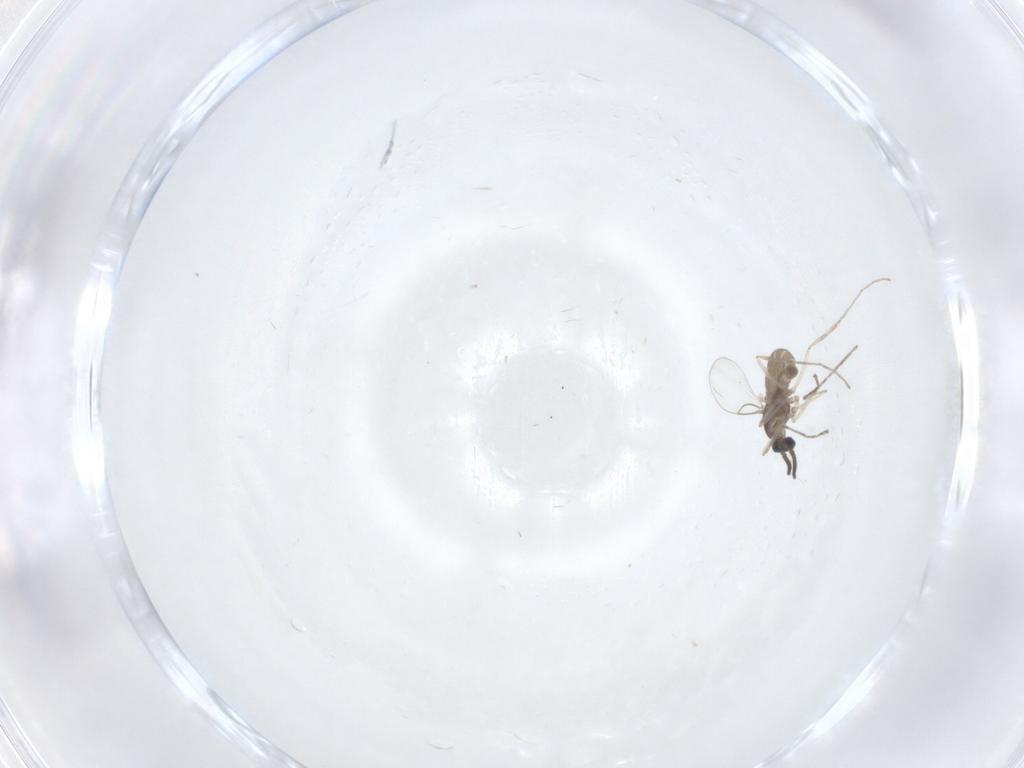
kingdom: Animalia
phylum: Arthropoda
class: Insecta
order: Diptera
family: Cecidomyiidae
